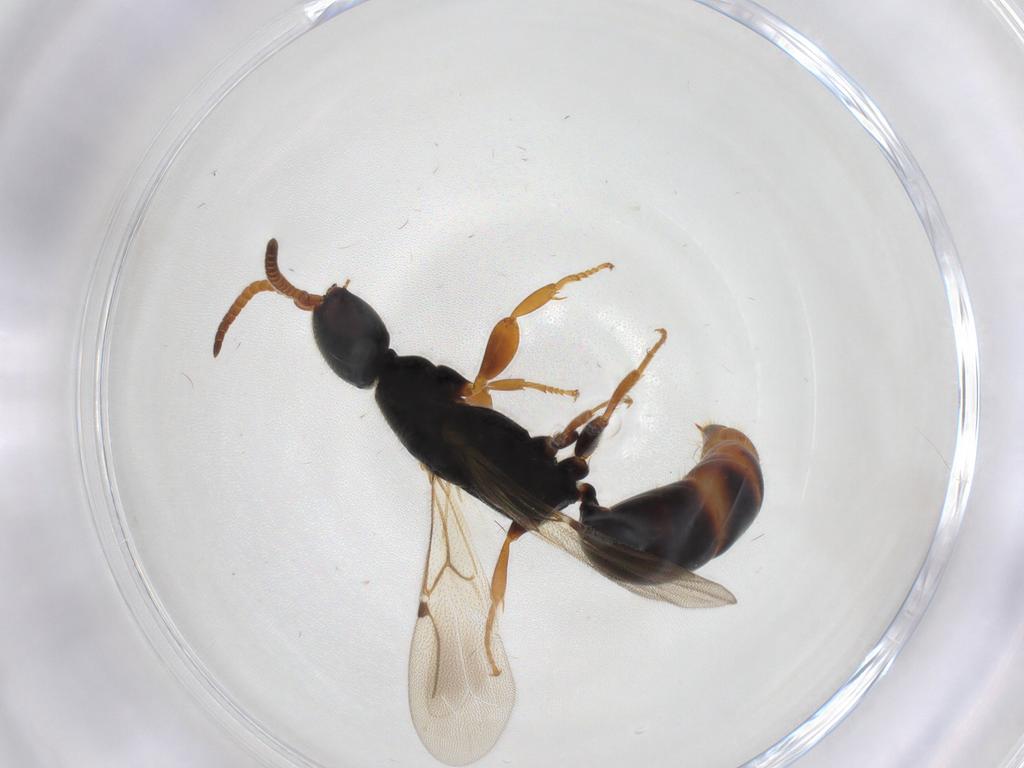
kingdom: Animalia
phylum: Arthropoda
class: Insecta
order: Hymenoptera
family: Bethylidae
